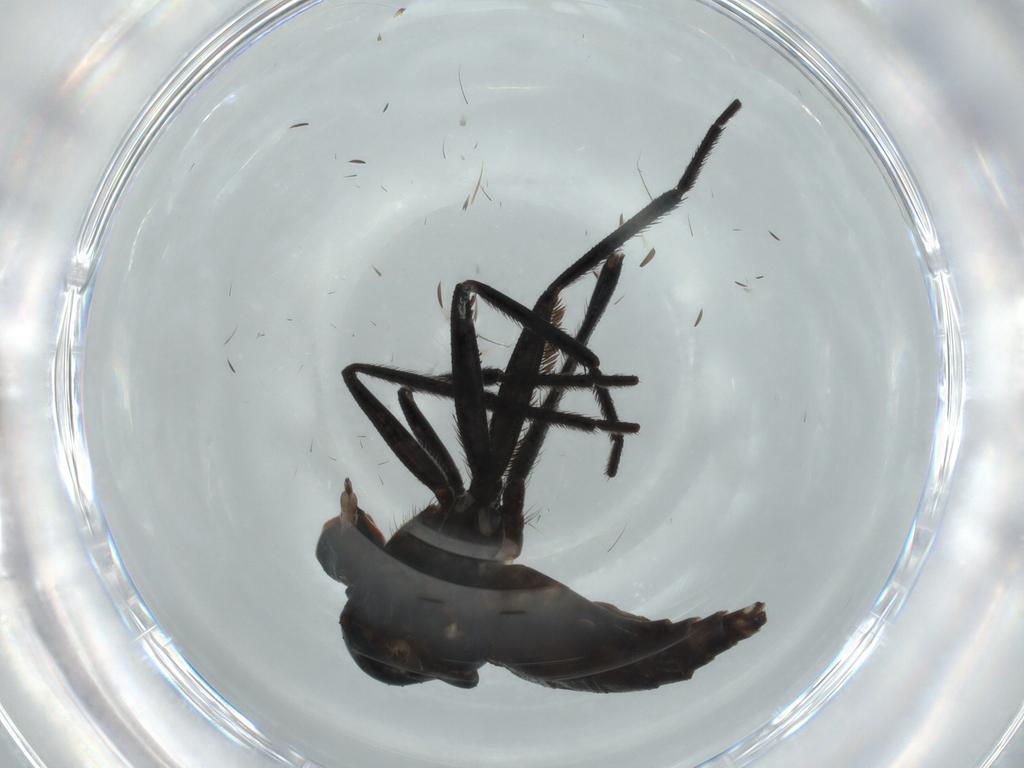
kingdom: Animalia
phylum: Arthropoda
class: Insecta
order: Diptera
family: Empididae
